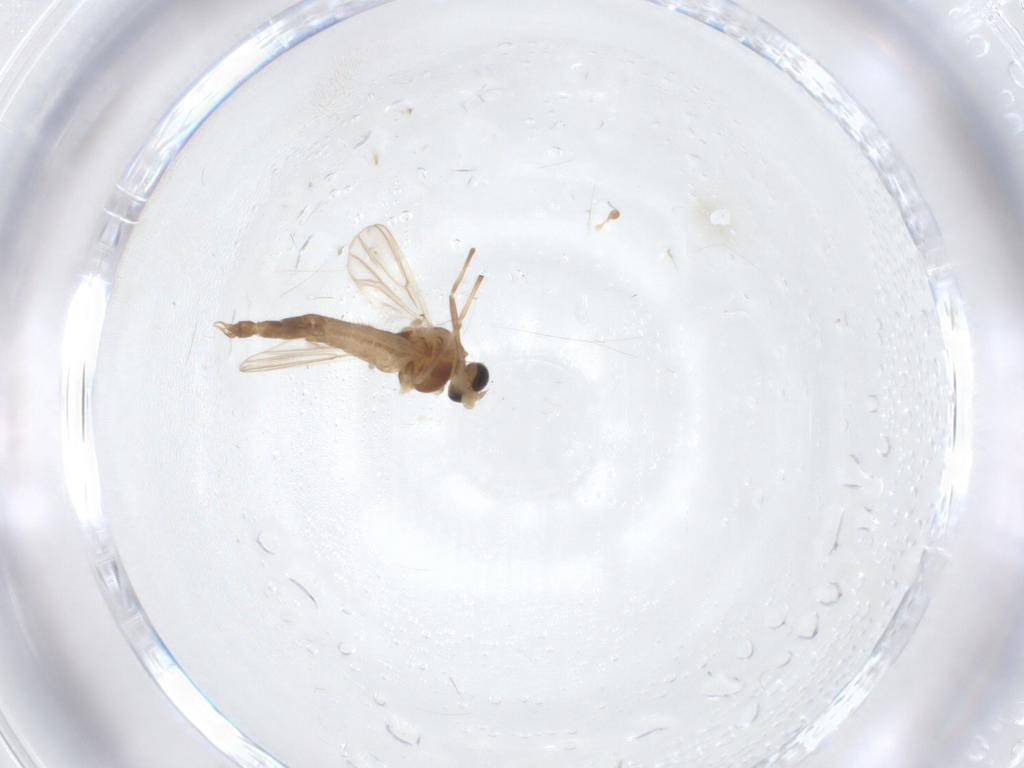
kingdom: Animalia
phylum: Arthropoda
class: Insecta
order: Diptera
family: Chironomidae
